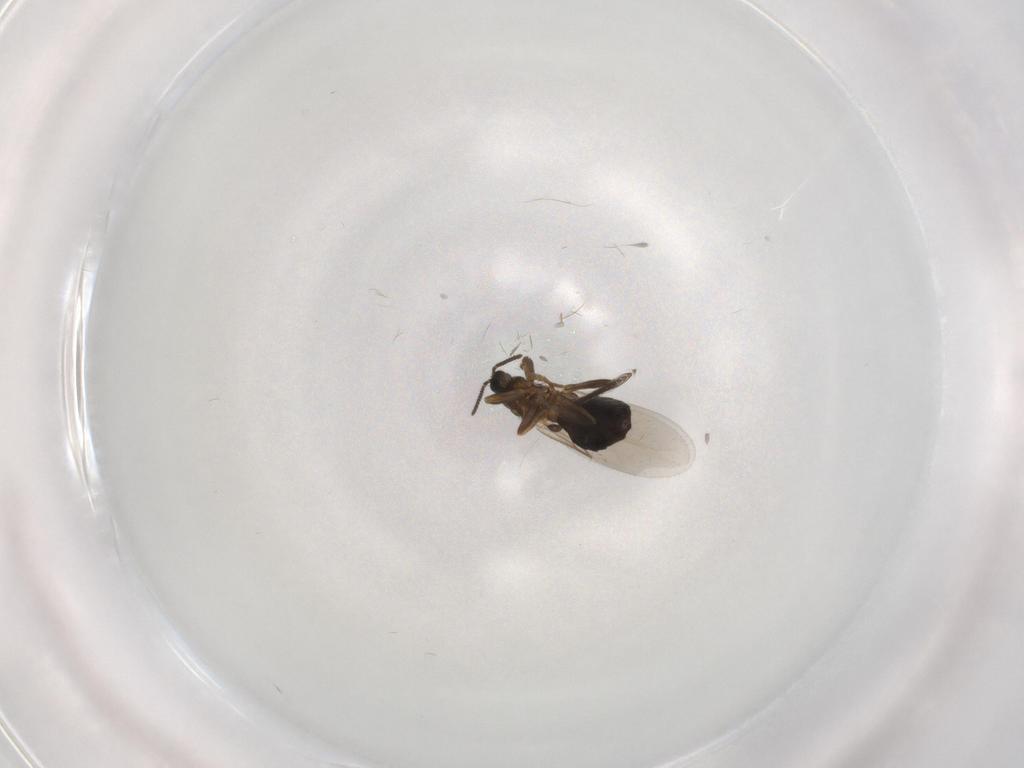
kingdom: Animalia
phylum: Arthropoda
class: Insecta
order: Diptera
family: Scatopsidae
